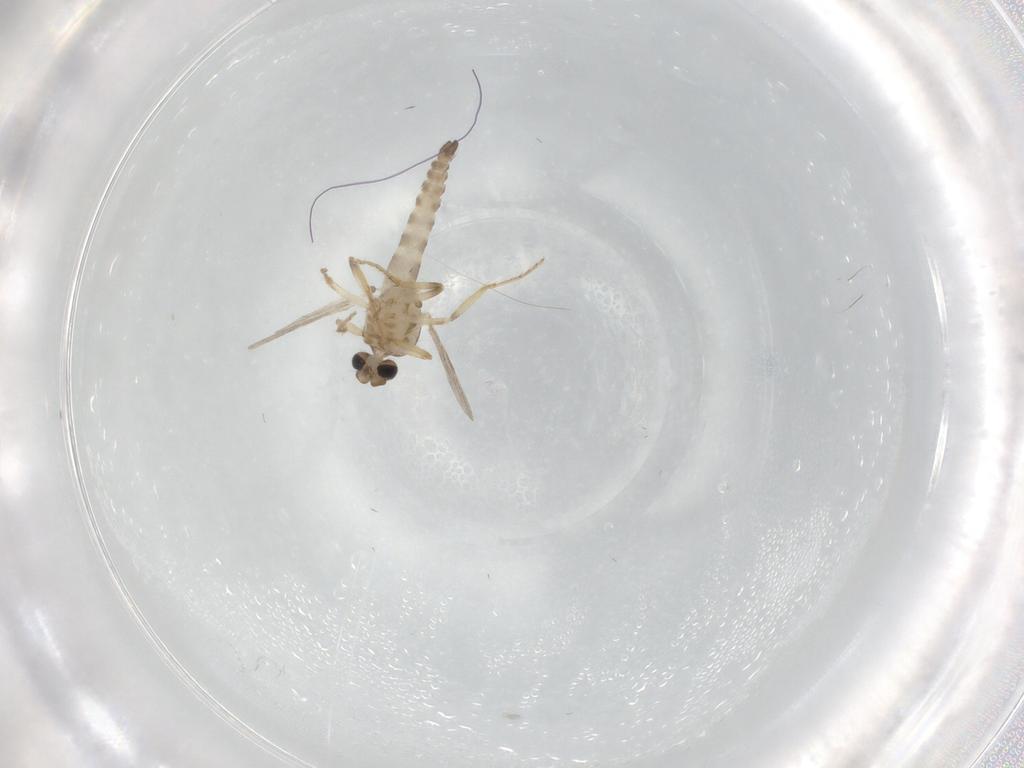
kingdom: Animalia
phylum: Arthropoda
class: Insecta
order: Diptera
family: Ceratopogonidae
